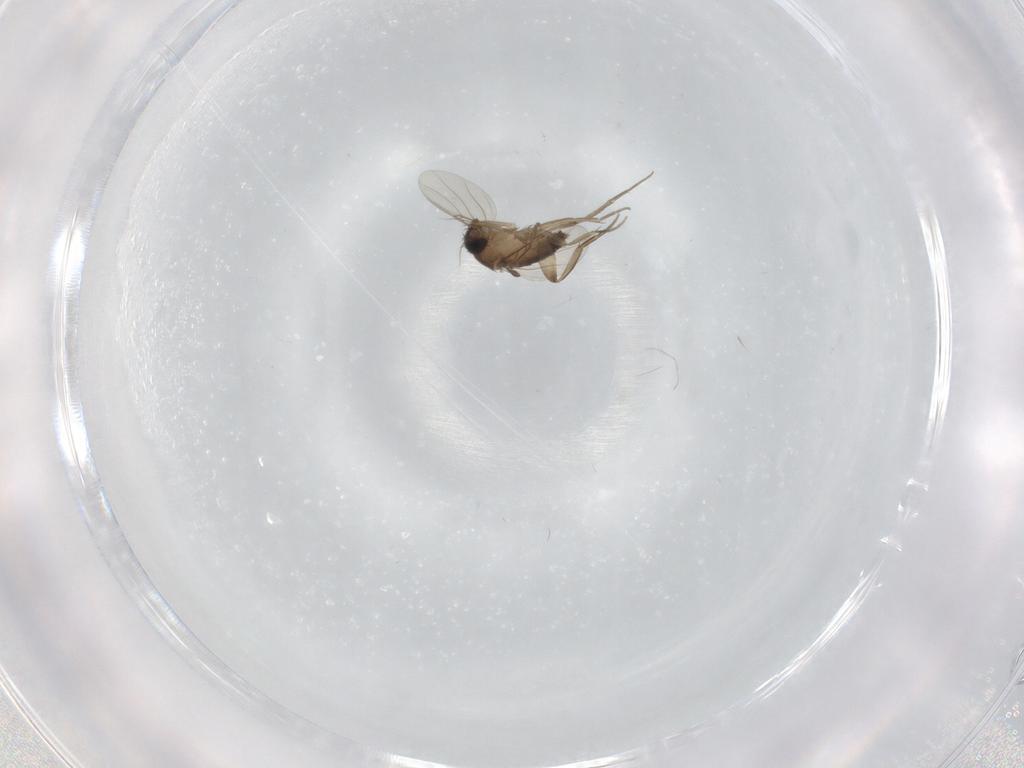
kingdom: Animalia
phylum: Arthropoda
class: Insecta
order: Diptera
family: Phoridae
